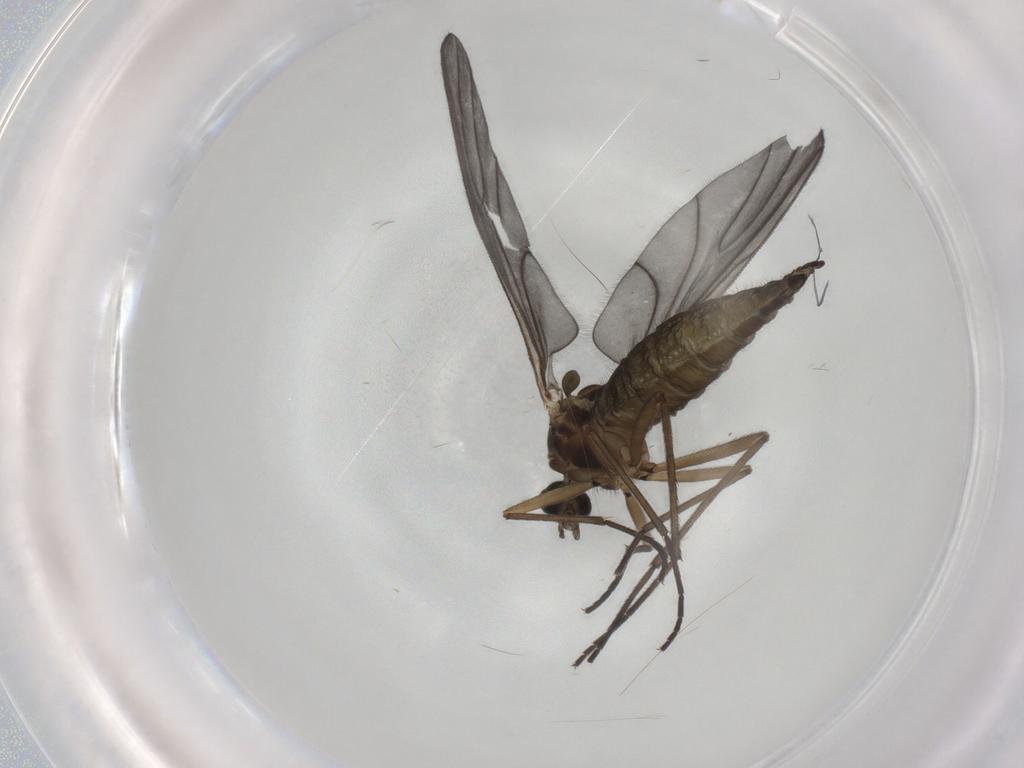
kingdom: Animalia
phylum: Arthropoda
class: Insecta
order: Diptera
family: Sciaridae
